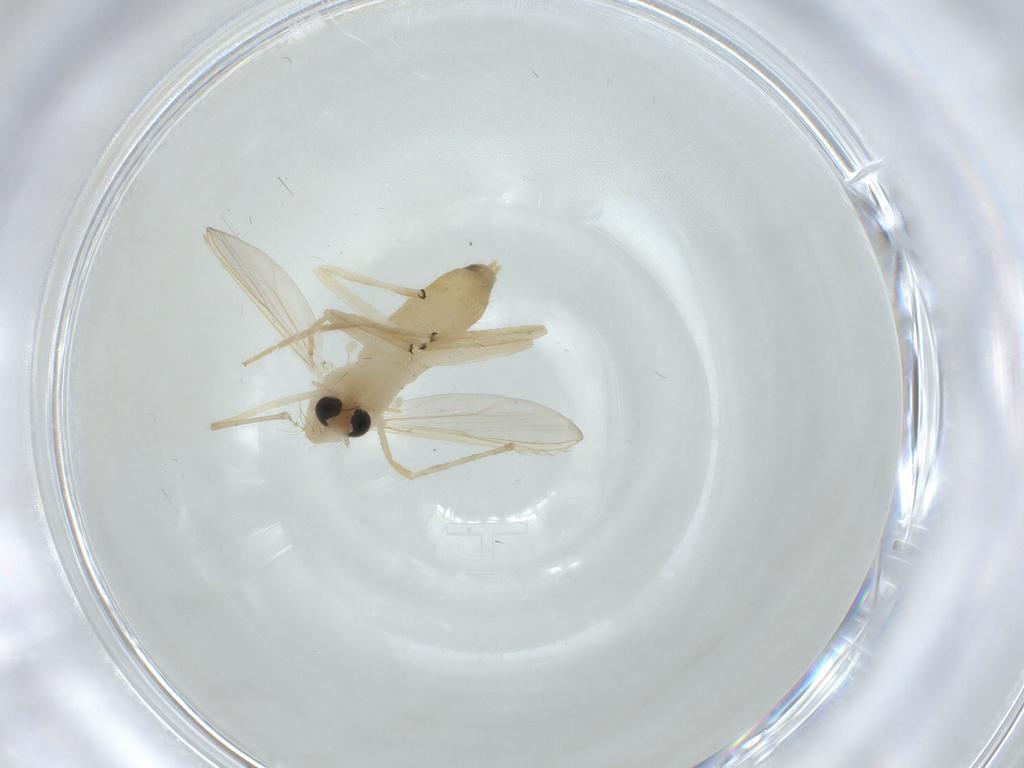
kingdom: Animalia
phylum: Arthropoda
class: Insecta
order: Diptera
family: Chironomidae
